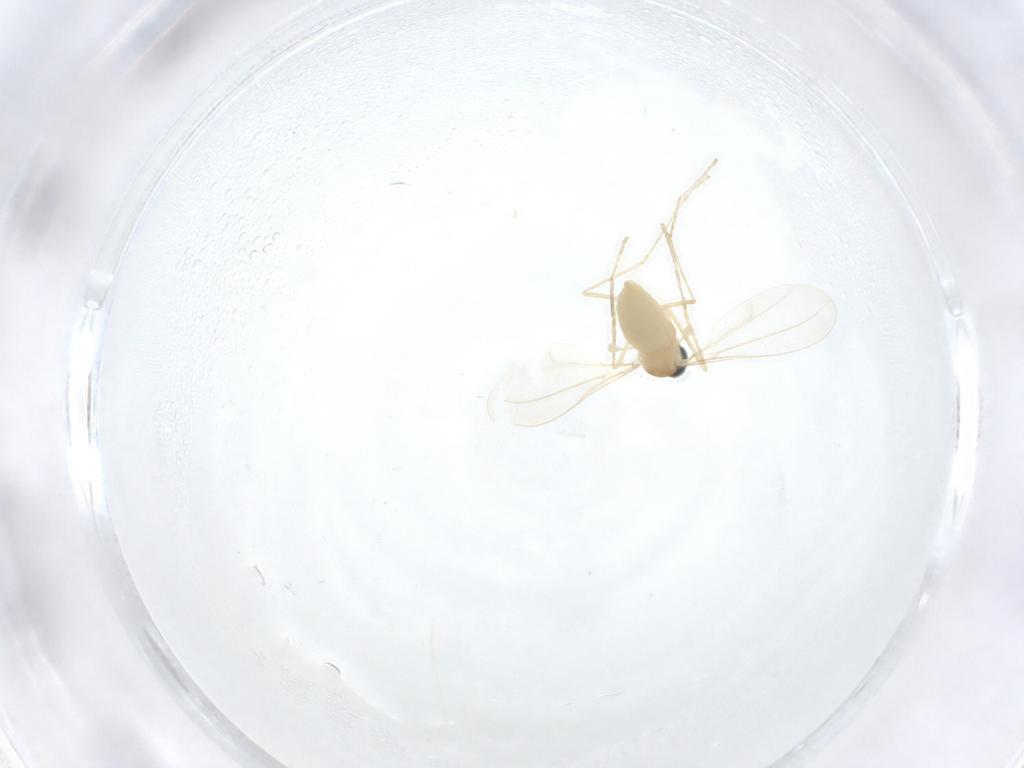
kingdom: Animalia
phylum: Arthropoda
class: Insecta
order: Diptera
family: Cecidomyiidae
